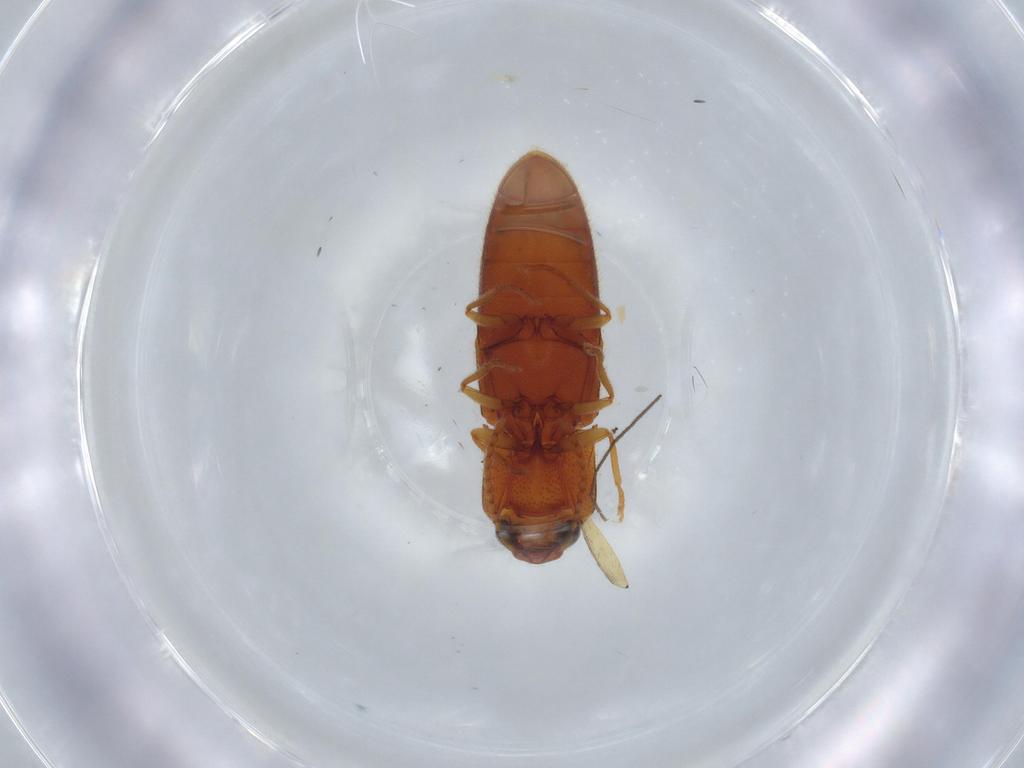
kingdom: Animalia
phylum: Arthropoda
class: Insecta
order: Coleoptera
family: Elateridae
